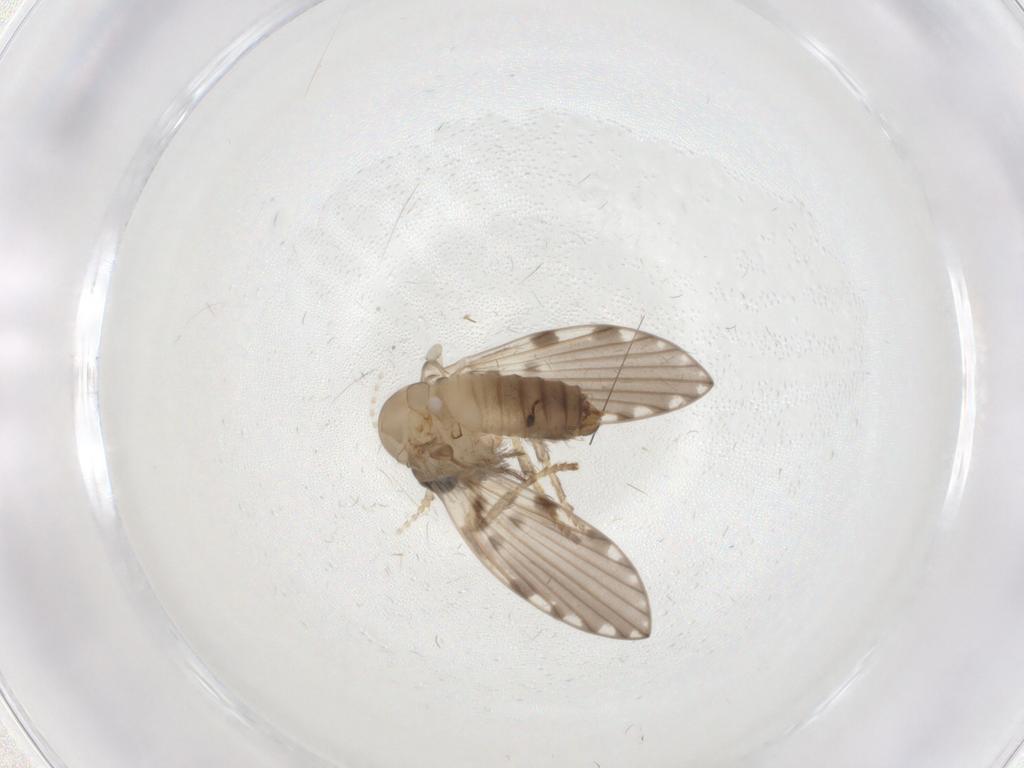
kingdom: Animalia
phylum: Arthropoda
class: Insecta
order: Diptera
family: Psychodidae
